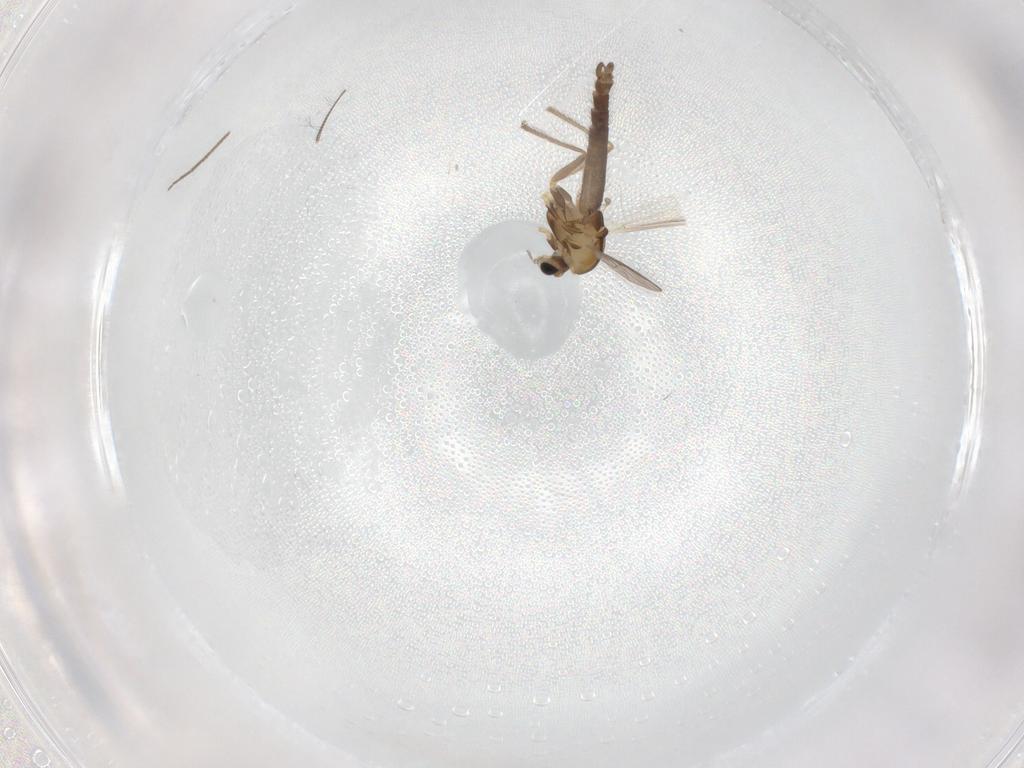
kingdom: Animalia
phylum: Arthropoda
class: Insecta
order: Diptera
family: Chironomidae
